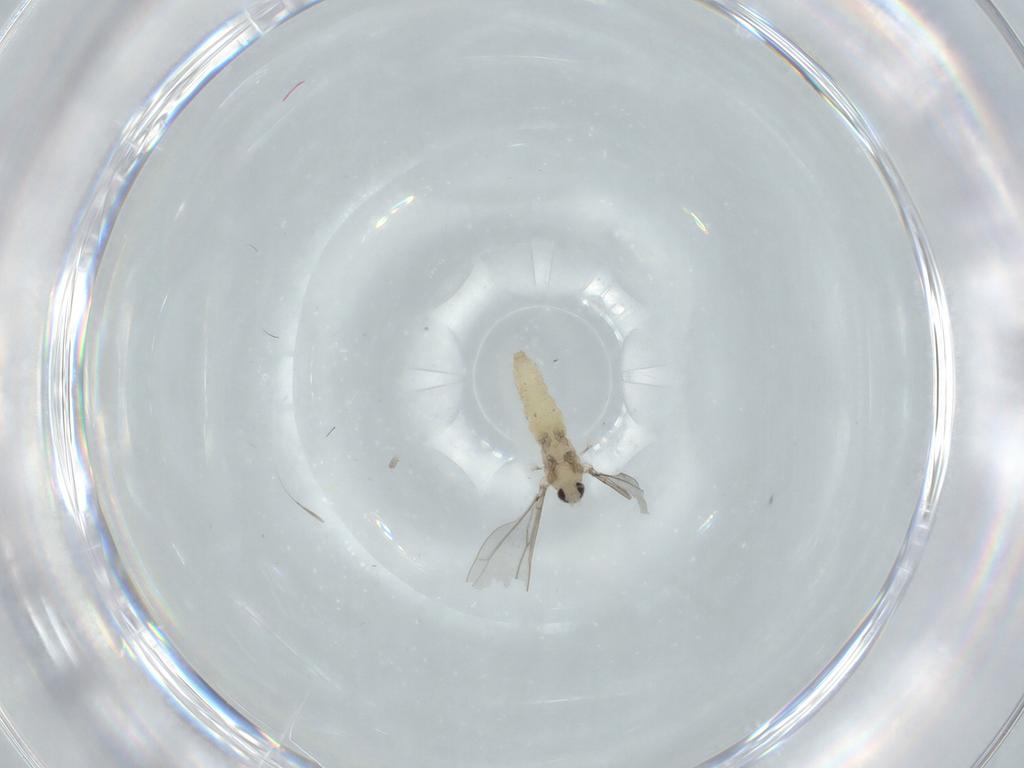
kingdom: Animalia
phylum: Arthropoda
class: Insecta
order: Diptera
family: Cecidomyiidae
